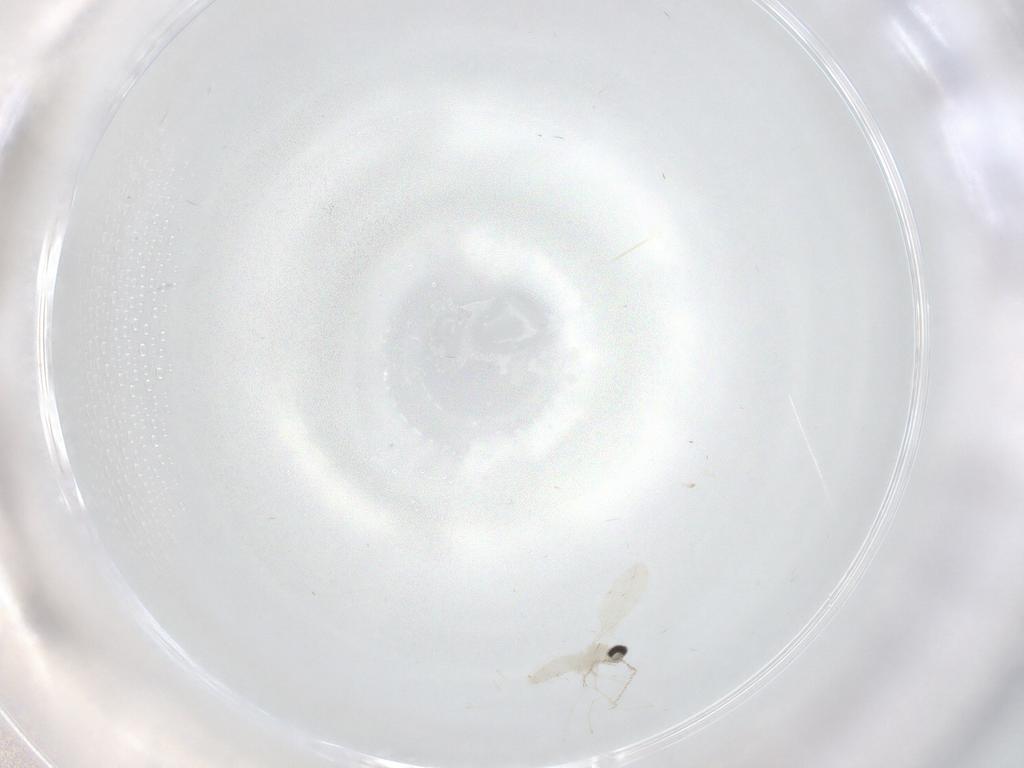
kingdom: Animalia
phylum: Arthropoda
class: Insecta
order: Diptera
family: Cecidomyiidae
